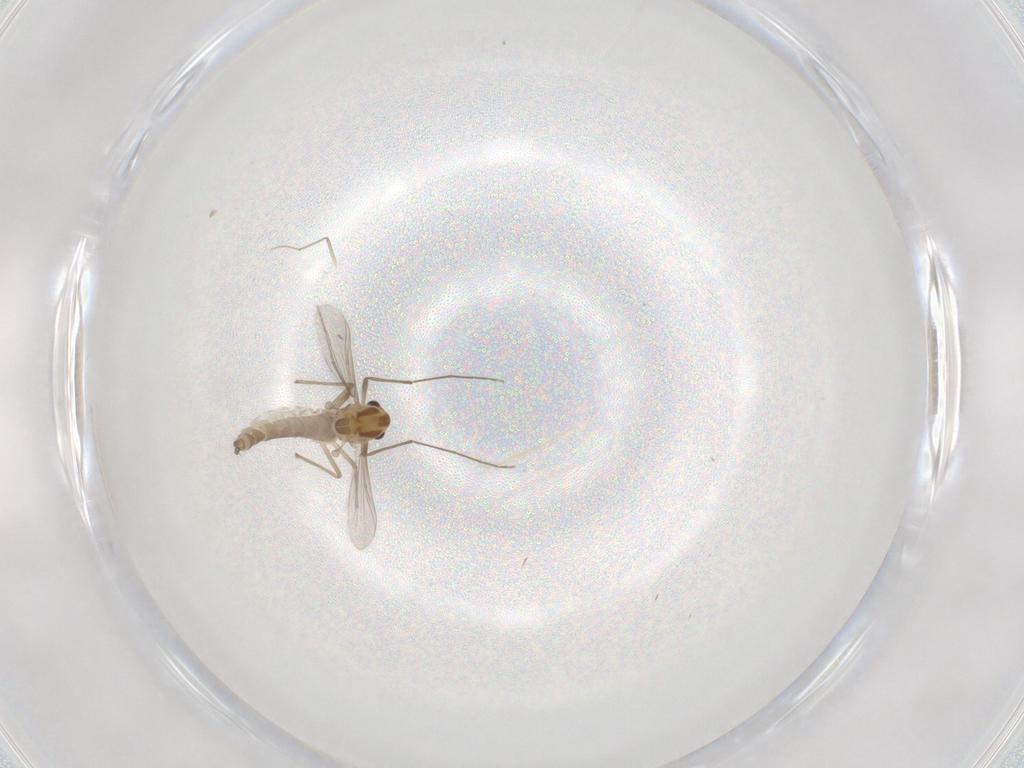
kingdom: Animalia
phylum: Arthropoda
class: Insecta
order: Diptera
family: Chironomidae
